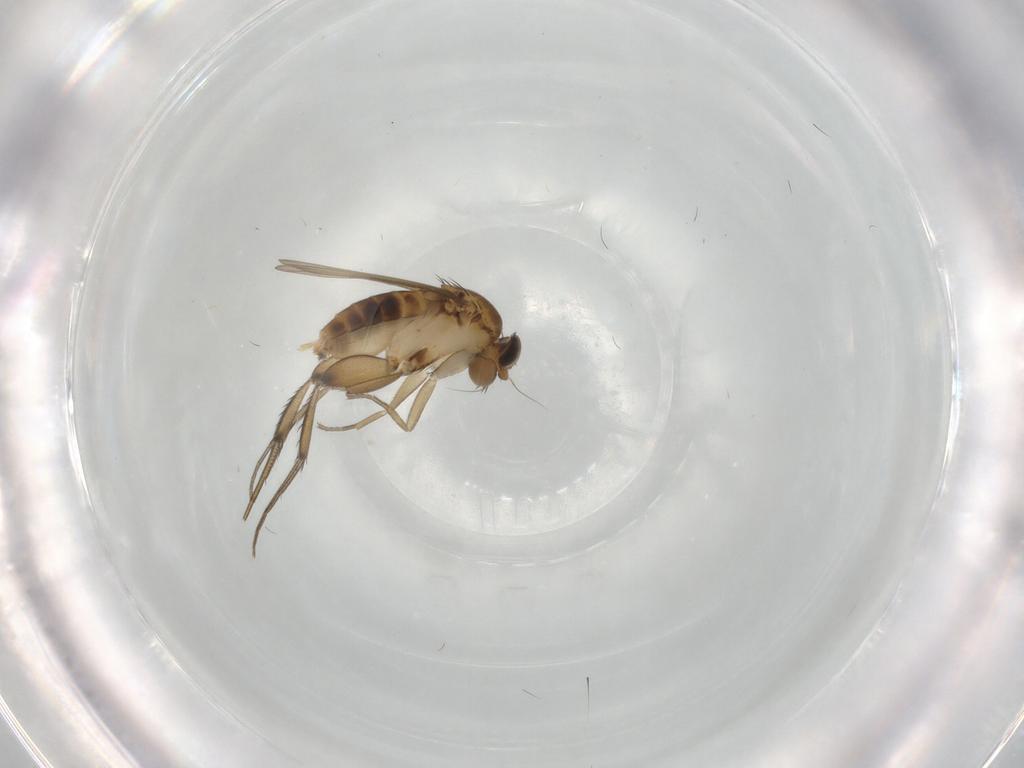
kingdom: Animalia
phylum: Arthropoda
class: Insecta
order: Diptera
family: Phoridae
